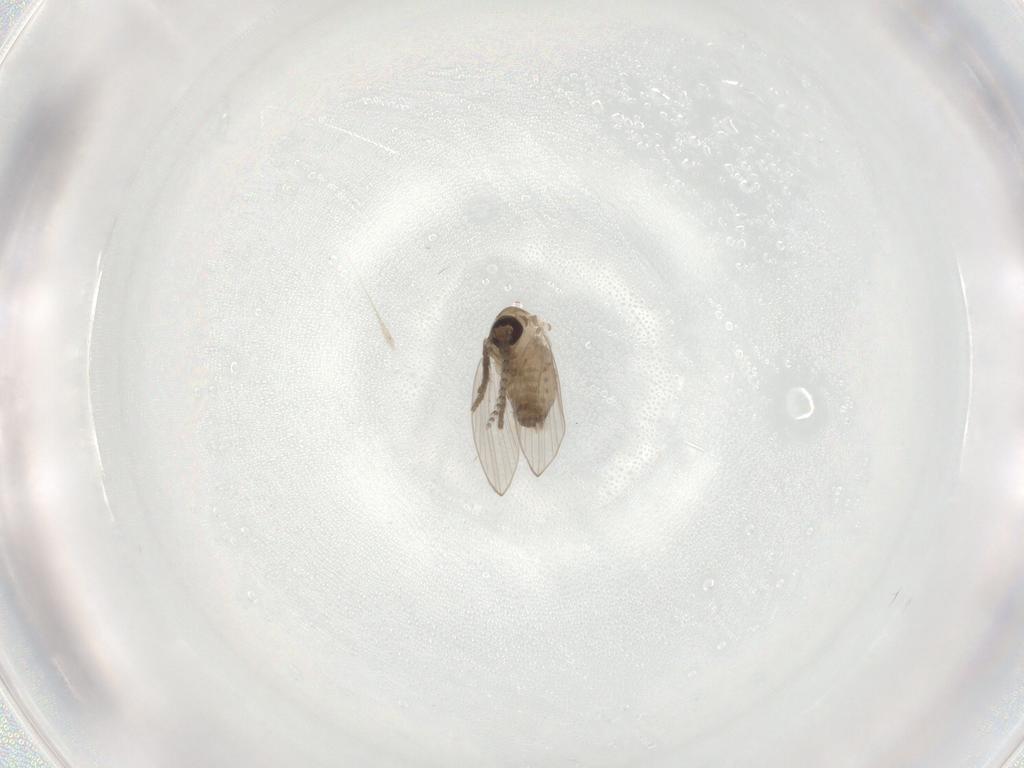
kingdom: Animalia
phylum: Arthropoda
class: Insecta
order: Diptera
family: Psychodidae
